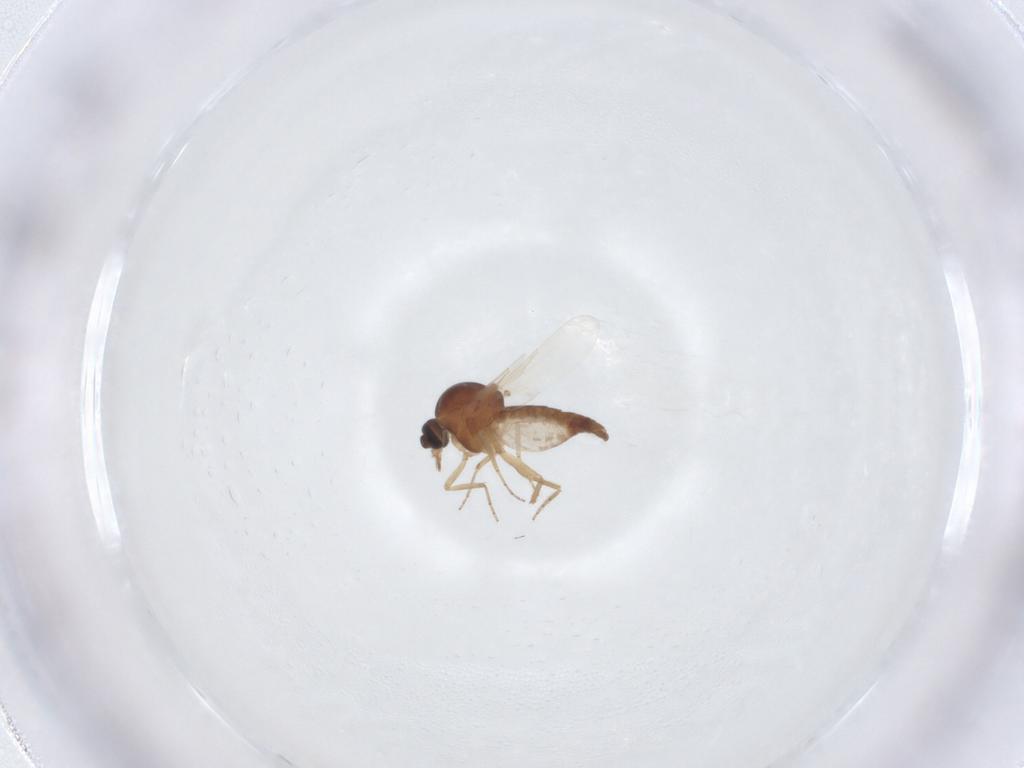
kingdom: Animalia
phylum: Arthropoda
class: Insecta
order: Diptera
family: Ceratopogonidae
